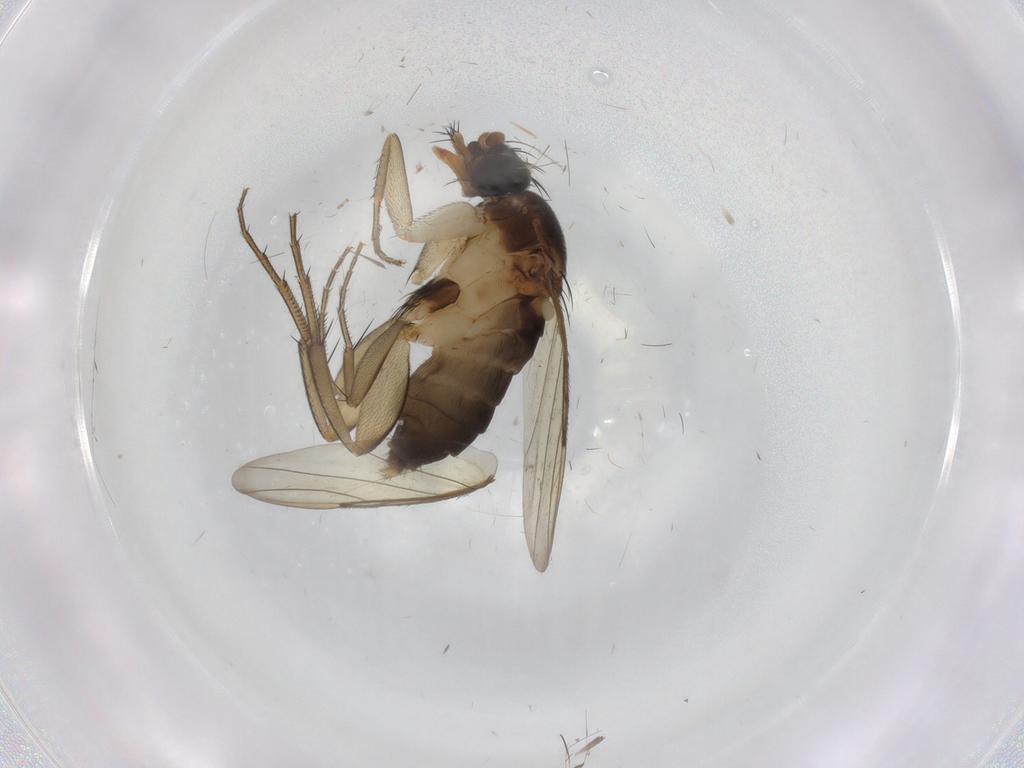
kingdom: Animalia
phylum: Arthropoda
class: Insecta
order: Diptera
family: Phoridae
